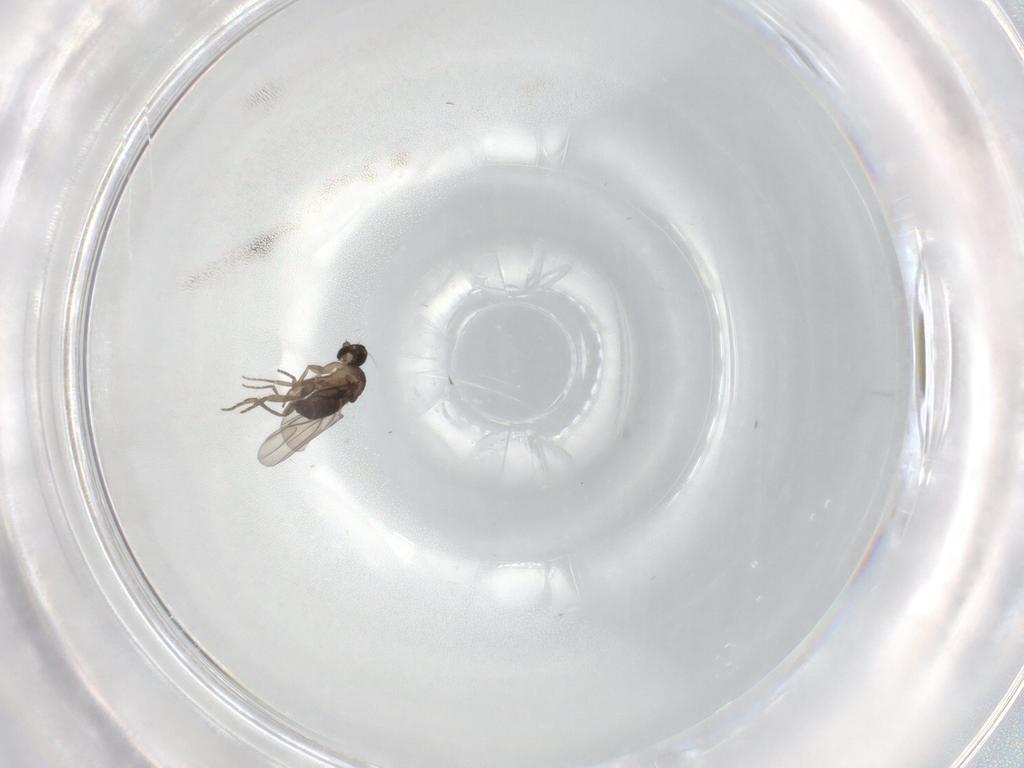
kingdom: Animalia
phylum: Arthropoda
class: Insecta
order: Diptera
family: Phoridae
